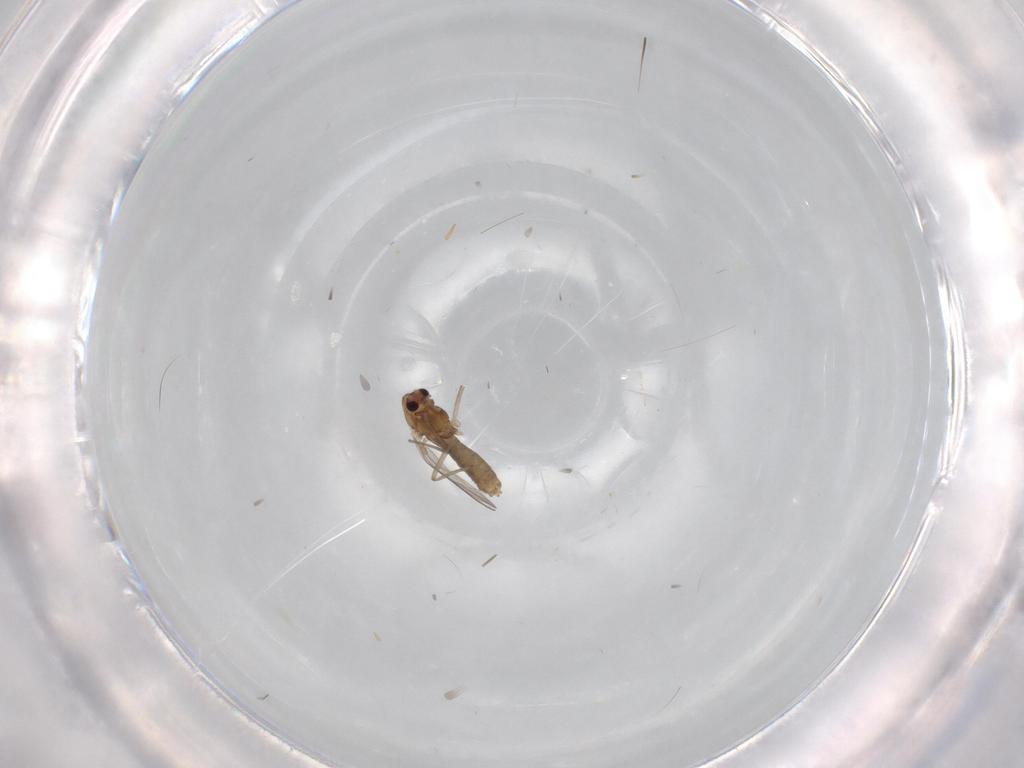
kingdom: Animalia
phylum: Arthropoda
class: Insecta
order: Diptera
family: Chironomidae
